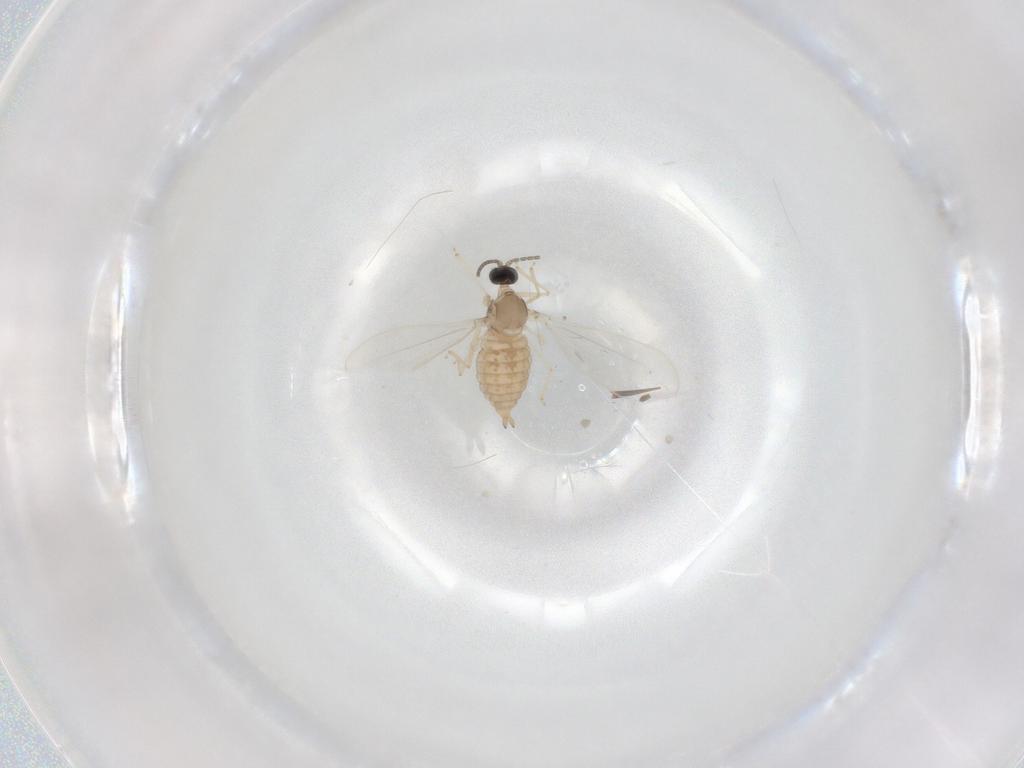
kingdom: Animalia
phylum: Arthropoda
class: Insecta
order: Diptera
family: Cecidomyiidae
